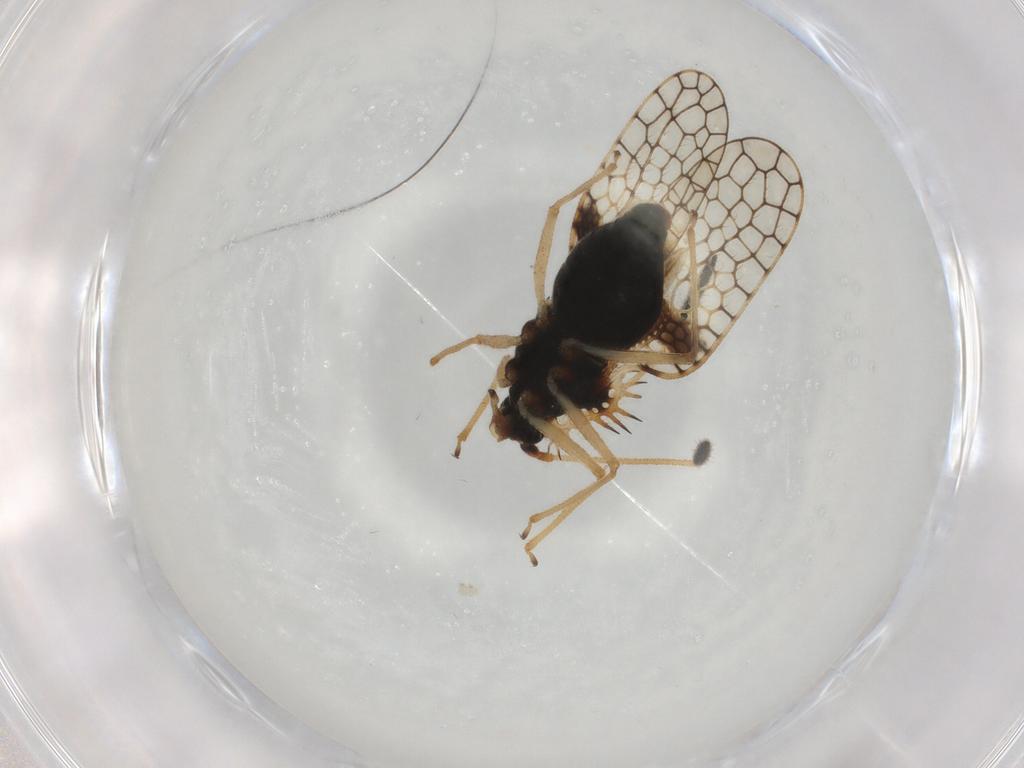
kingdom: Animalia
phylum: Arthropoda
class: Insecta
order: Hemiptera
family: Tingidae
